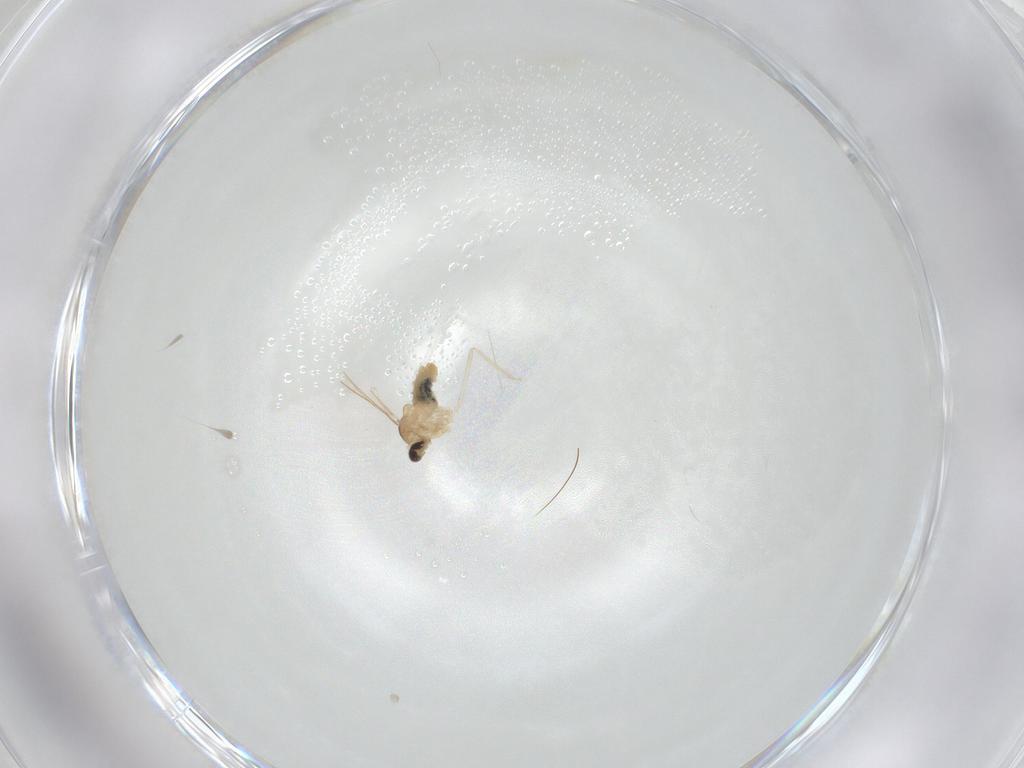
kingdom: Animalia
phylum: Arthropoda
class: Insecta
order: Diptera
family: Cecidomyiidae
